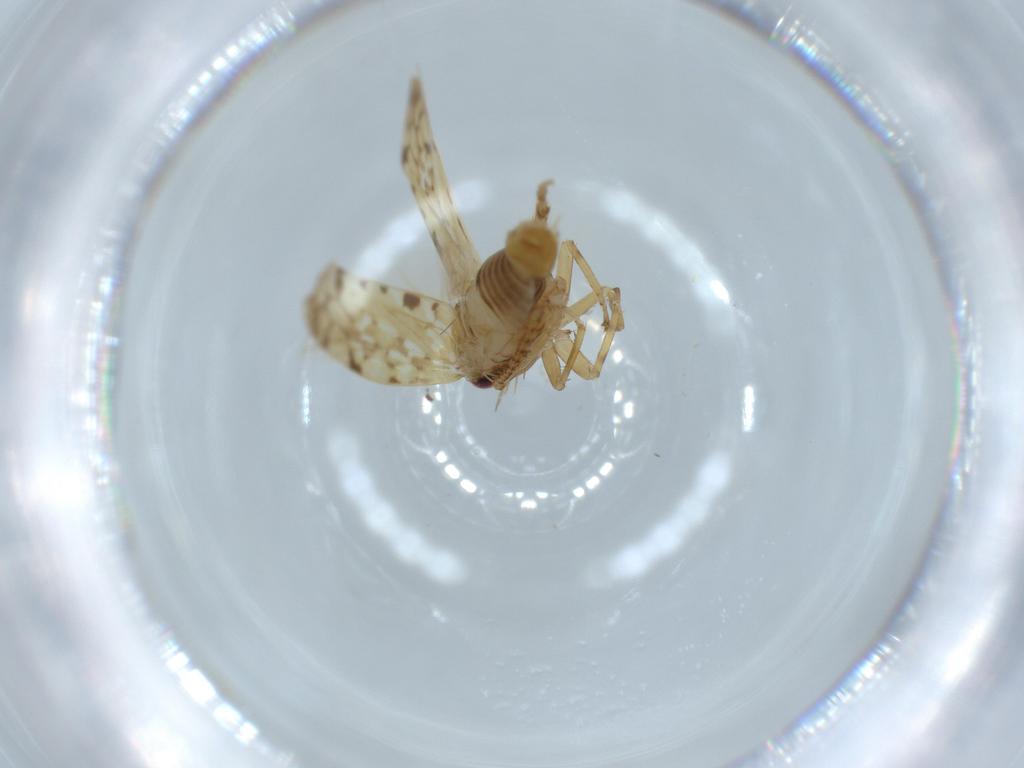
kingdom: Animalia
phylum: Arthropoda
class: Insecta
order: Hemiptera
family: Cicadellidae
